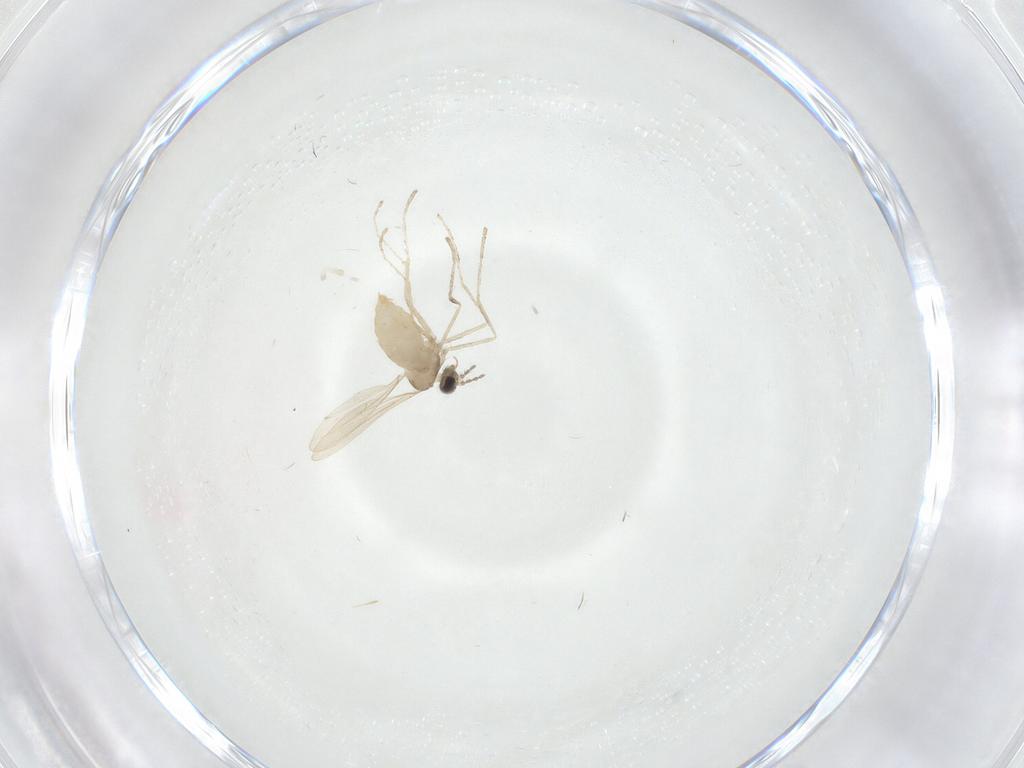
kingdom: Animalia
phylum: Arthropoda
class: Insecta
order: Diptera
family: Cecidomyiidae
